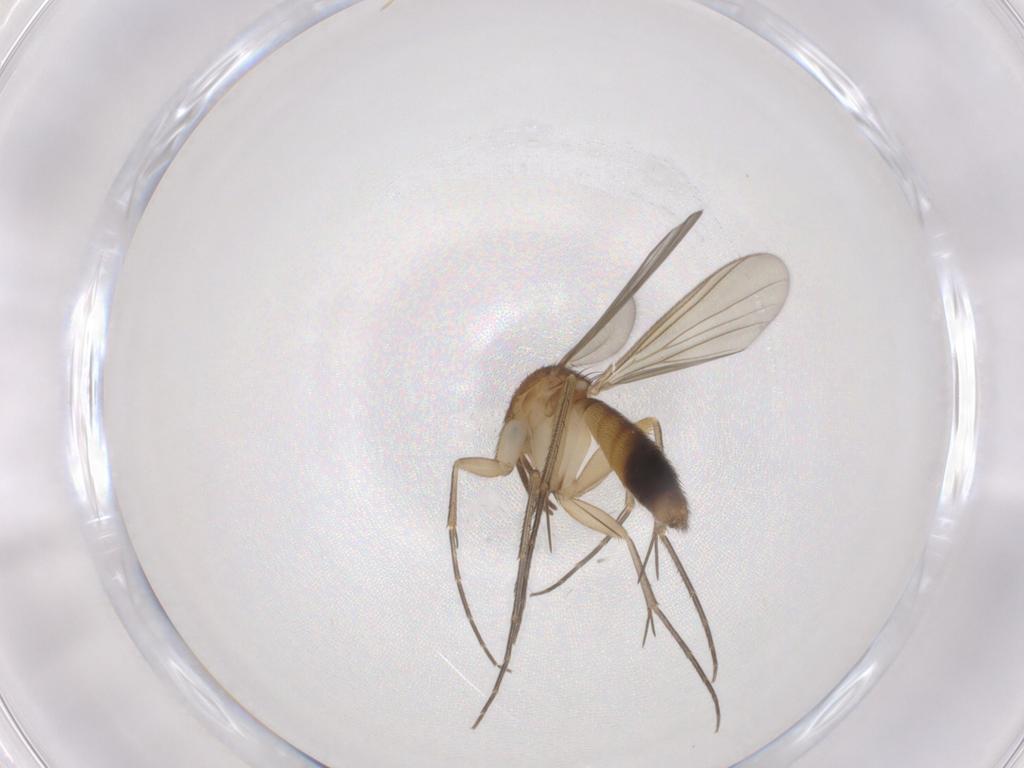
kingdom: Animalia
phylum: Arthropoda
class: Insecta
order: Diptera
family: Mycetophilidae
